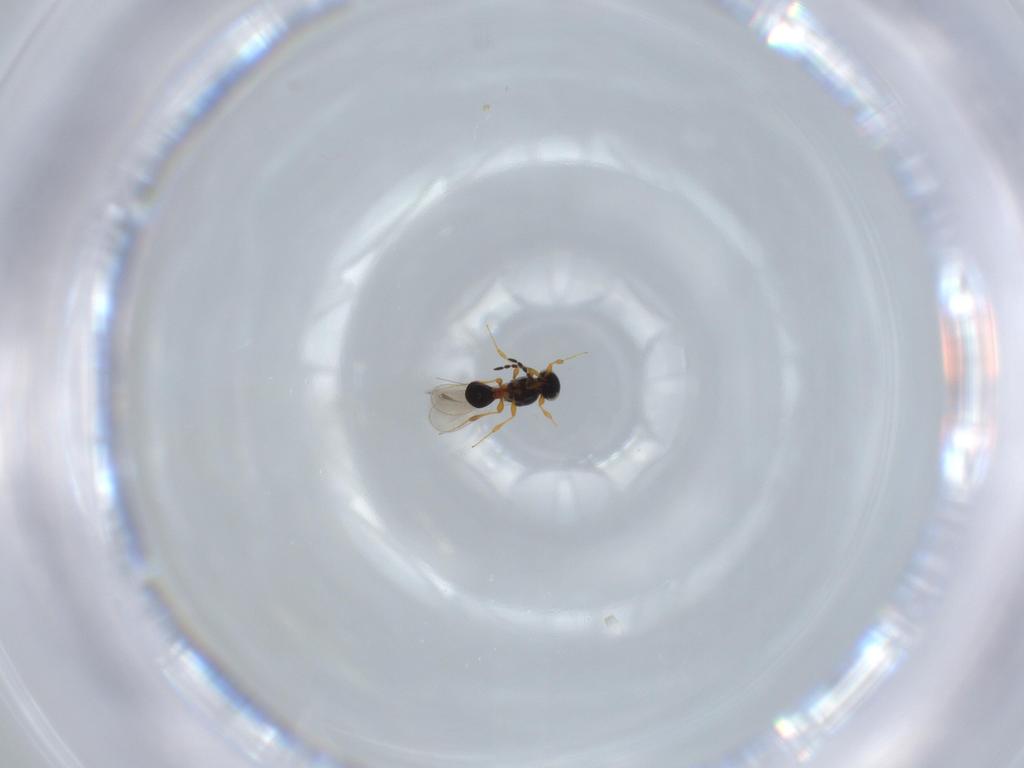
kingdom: Animalia
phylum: Arthropoda
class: Insecta
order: Hymenoptera
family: Platygastridae
